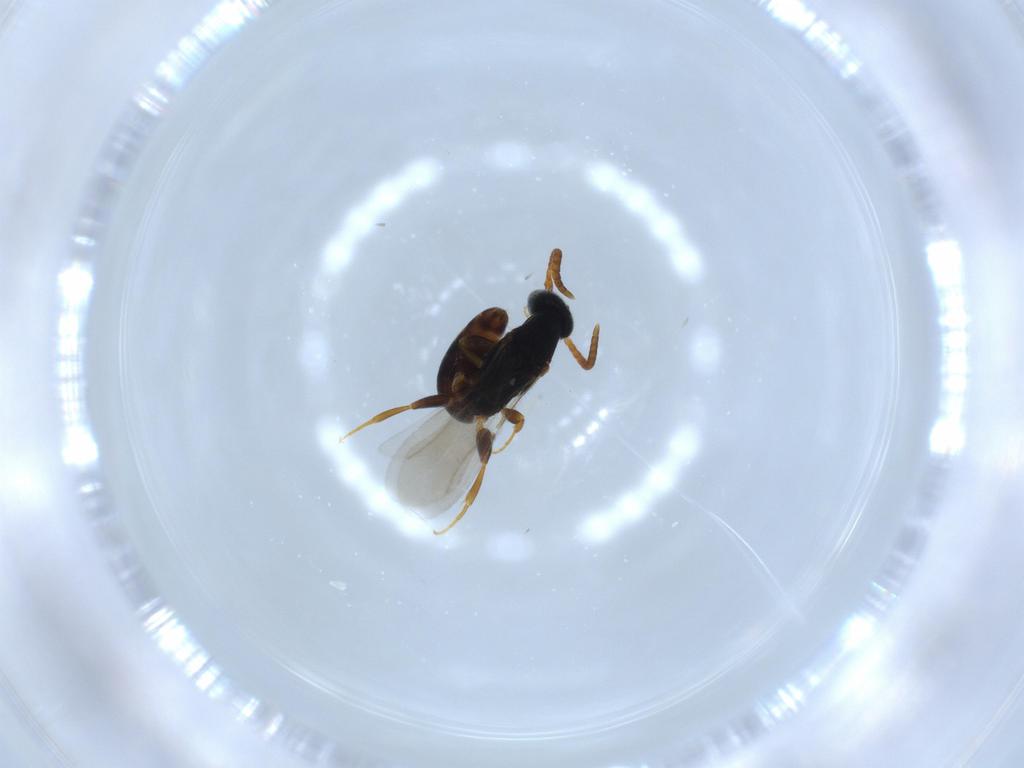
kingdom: Animalia
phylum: Arthropoda
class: Insecta
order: Hymenoptera
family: Bethylidae
